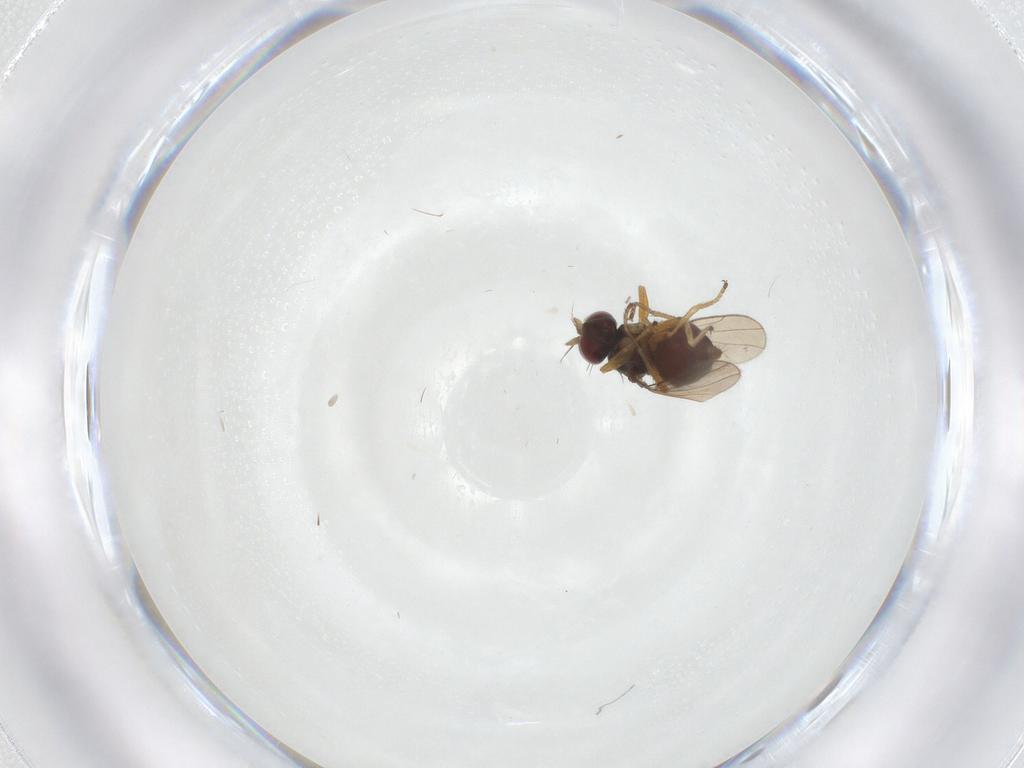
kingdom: Animalia
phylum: Arthropoda
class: Insecta
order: Diptera
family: Ephydridae
